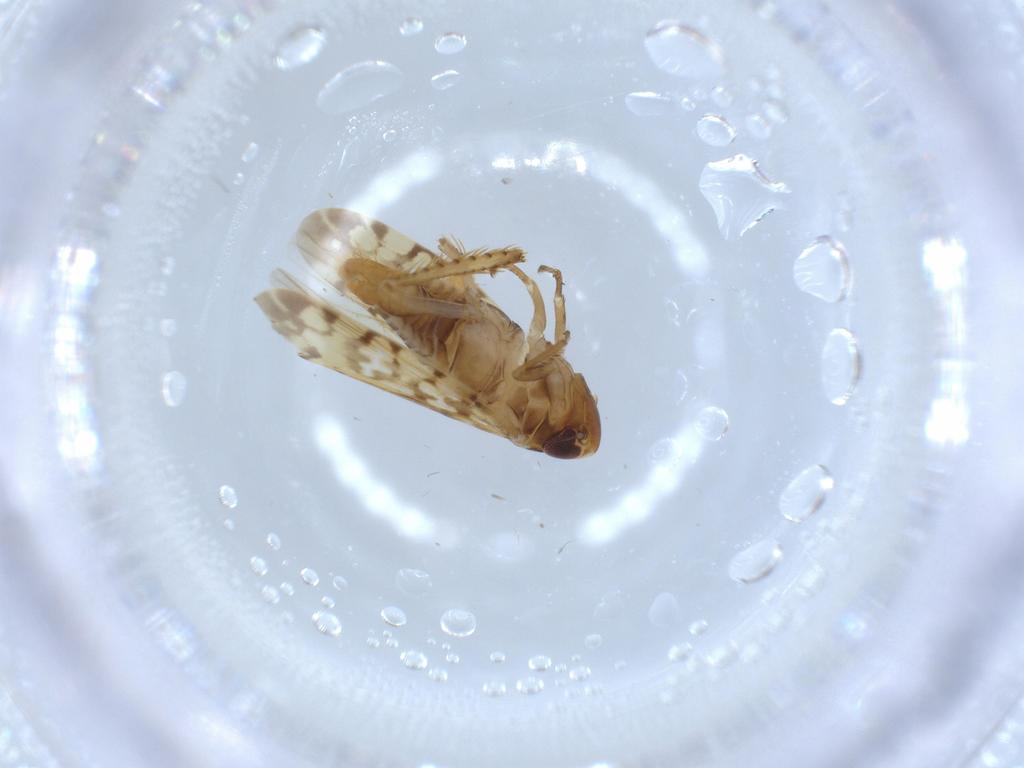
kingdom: Animalia
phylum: Arthropoda
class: Insecta
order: Hemiptera
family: Cicadellidae
